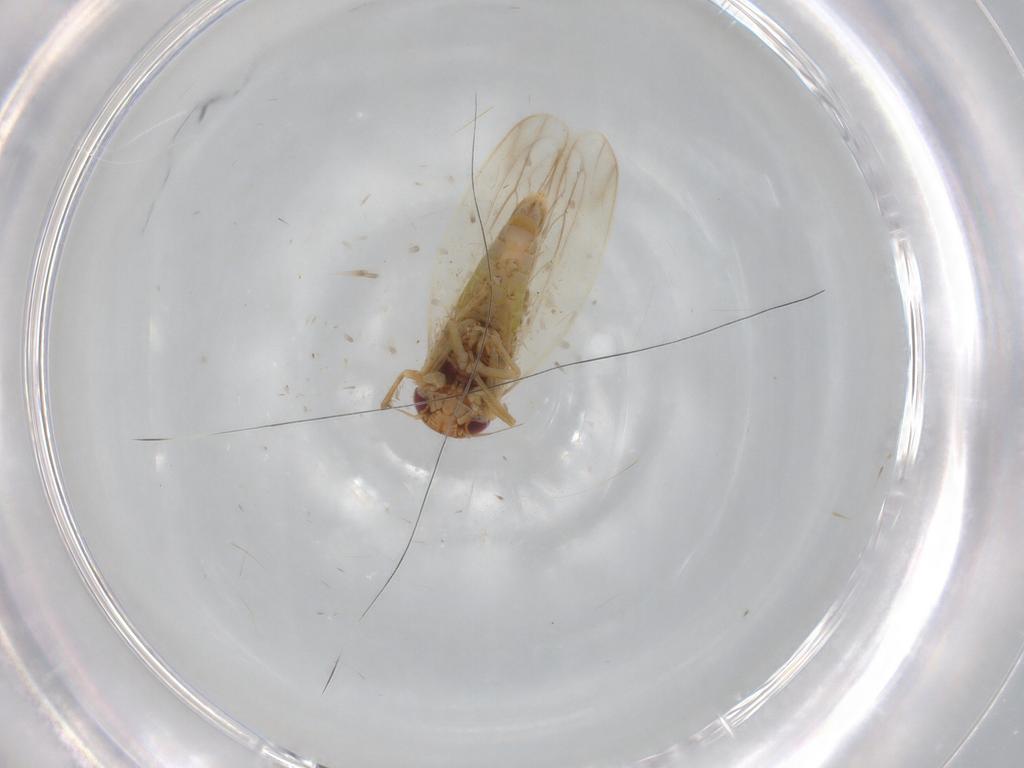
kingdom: Animalia
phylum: Arthropoda
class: Insecta
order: Hemiptera
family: Cicadellidae
